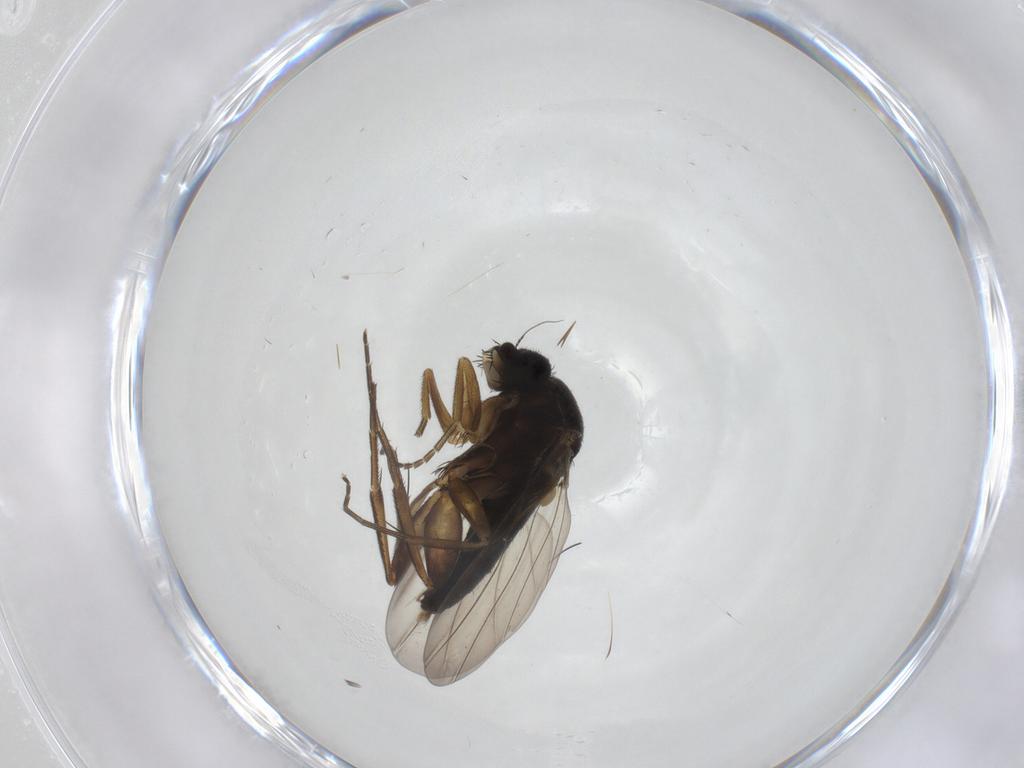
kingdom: Animalia
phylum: Arthropoda
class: Insecta
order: Diptera
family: Phoridae
